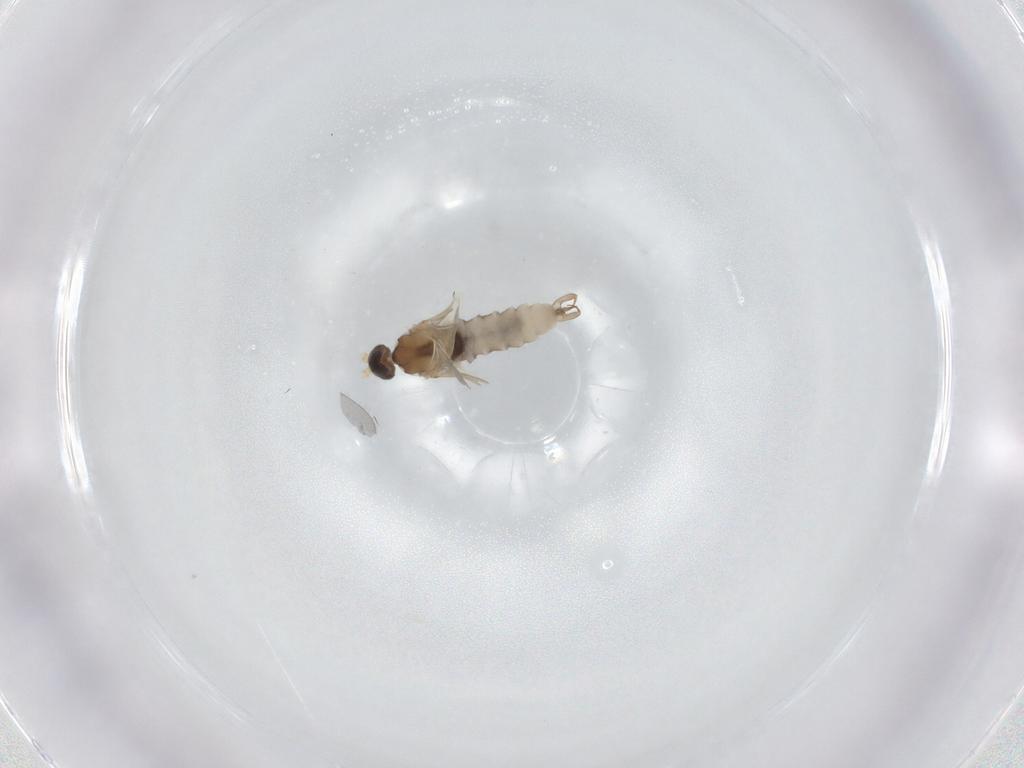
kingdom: Animalia
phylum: Arthropoda
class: Insecta
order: Diptera
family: Cecidomyiidae
